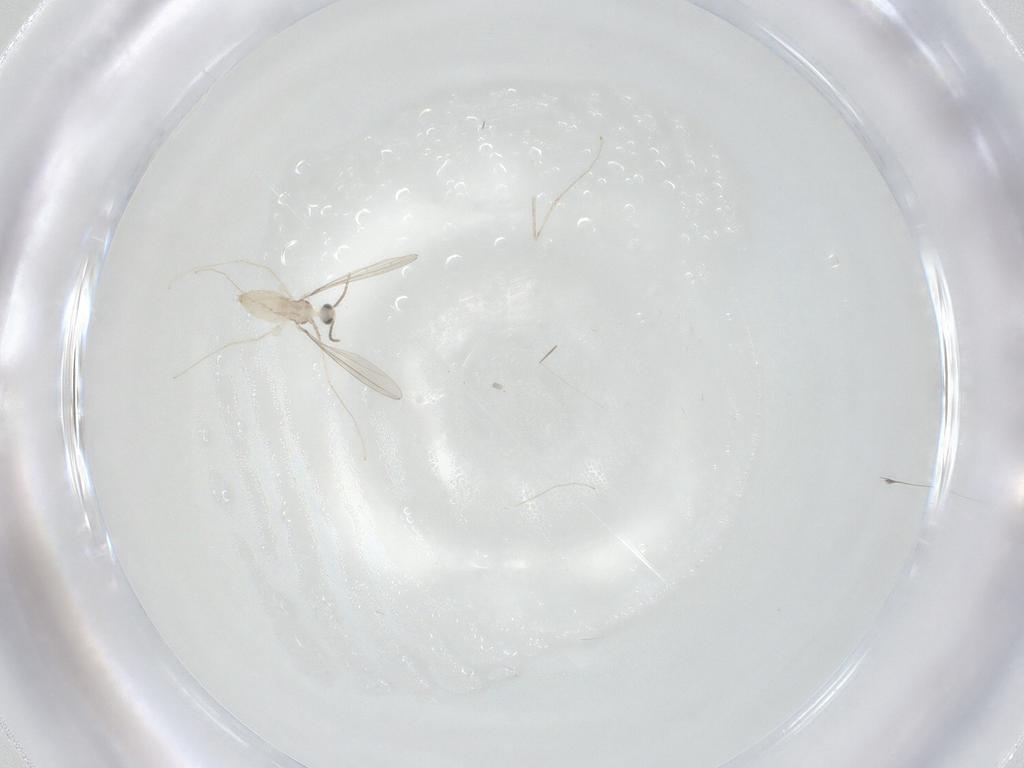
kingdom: Animalia
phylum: Arthropoda
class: Insecta
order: Diptera
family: Cecidomyiidae
